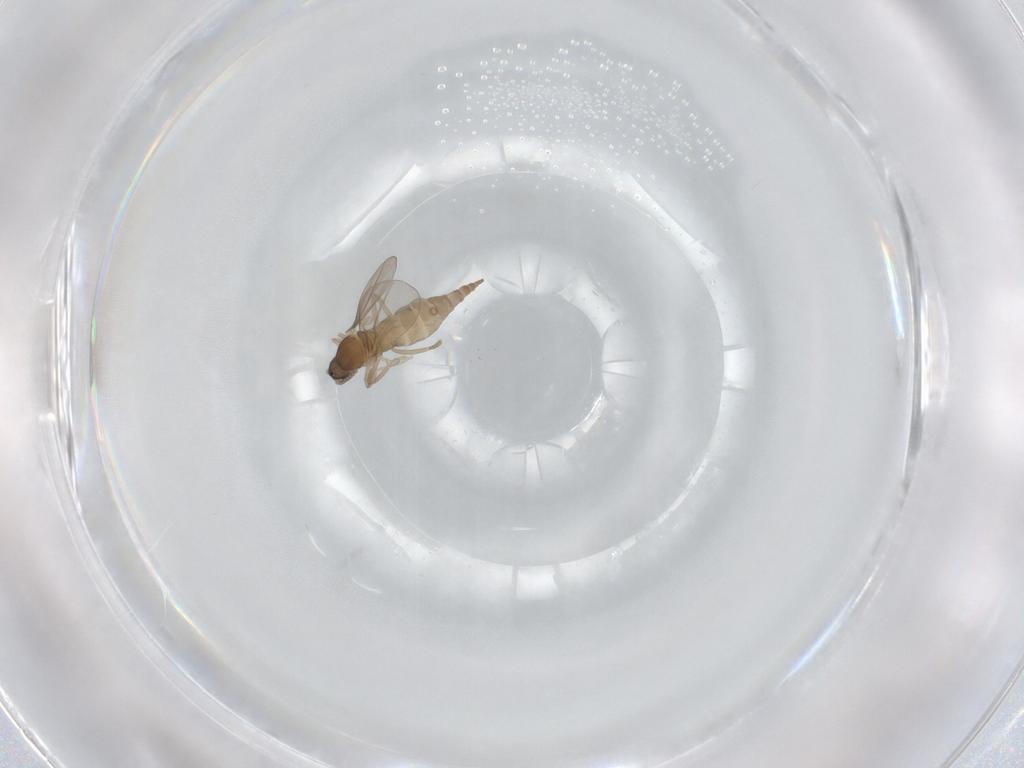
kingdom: Animalia
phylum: Arthropoda
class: Insecta
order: Diptera
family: Cecidomyiidae
